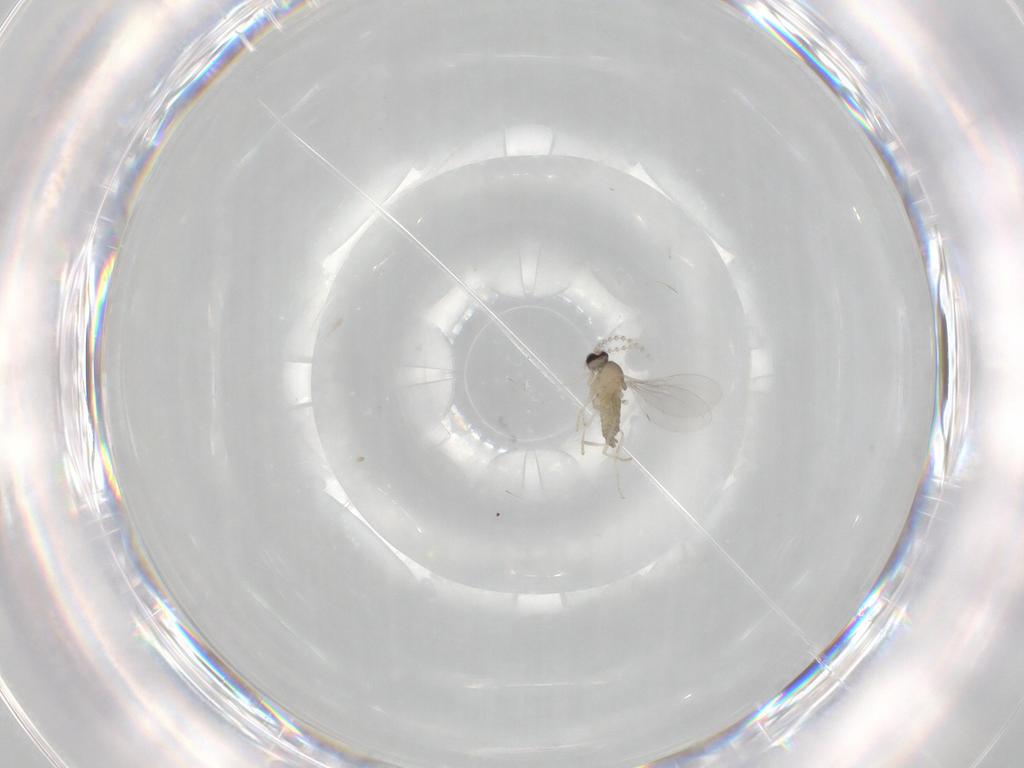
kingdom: Animalia
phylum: Arthropoda
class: Insecta
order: Diptera
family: Cecidomyiidae
